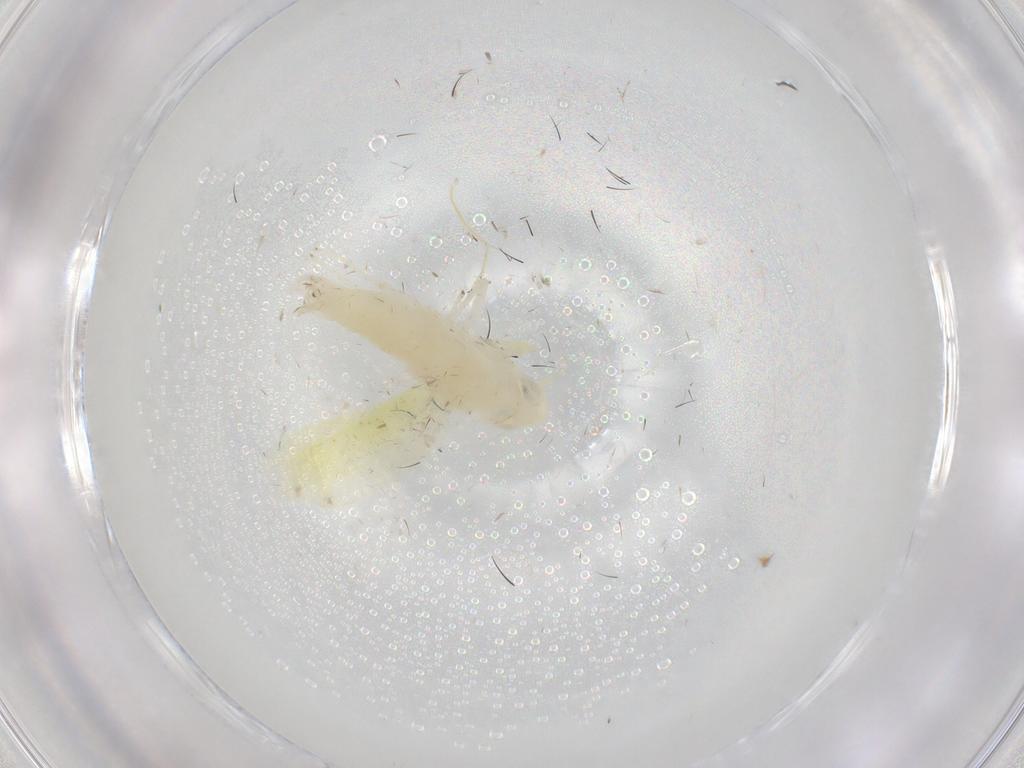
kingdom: Animalia
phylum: Arthropoda
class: Insecta
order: Hemiptera
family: Cicadellidae
